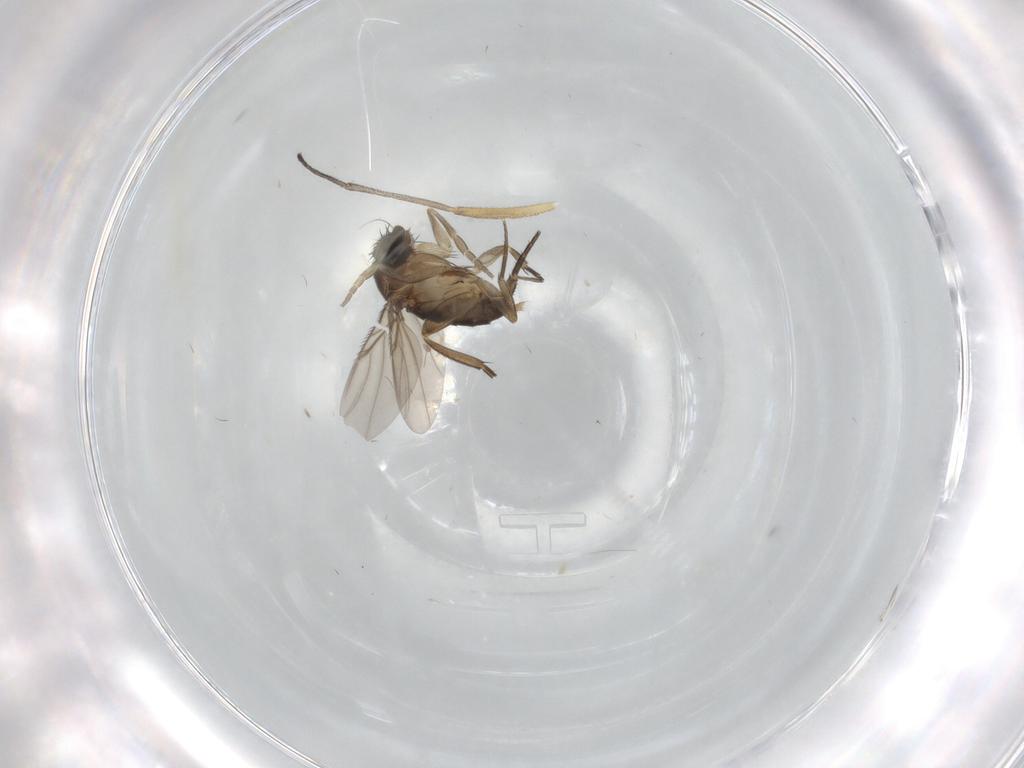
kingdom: Animalia
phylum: Arthropoda
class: Insecta
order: Diptera
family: Phoridae
